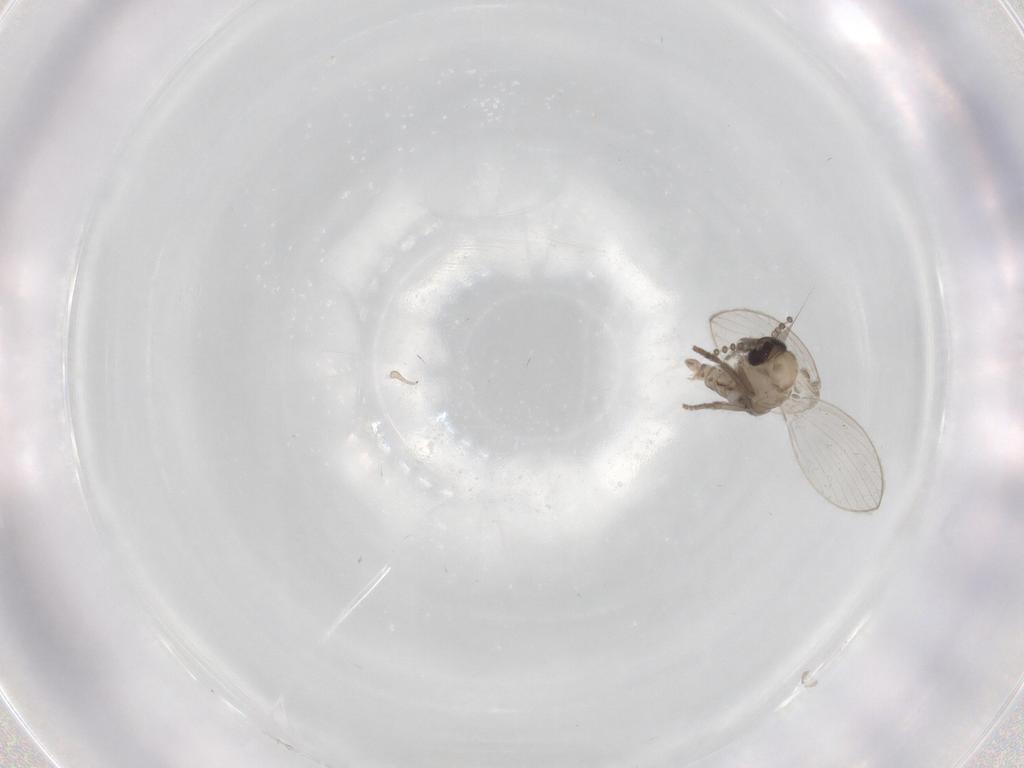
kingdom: Animalia
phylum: Arthropoda
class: Insecta
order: Diptera
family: Psychodidae
